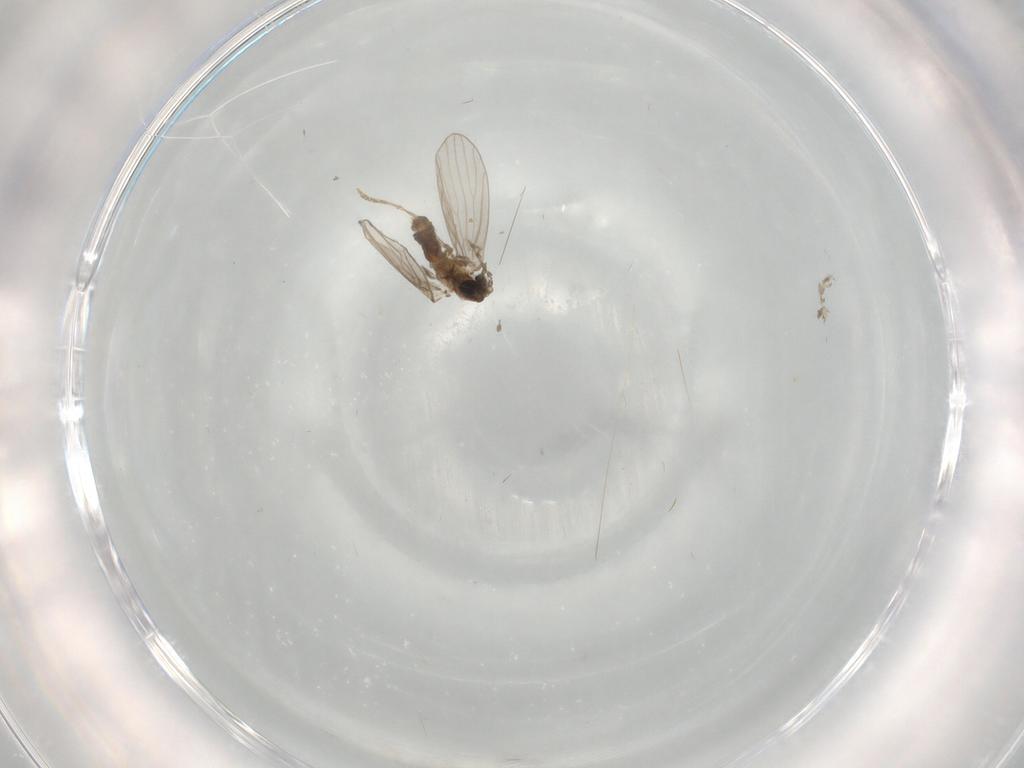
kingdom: Animalia
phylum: Arthropoda
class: Insecta
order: Diptera
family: Psychodidae
